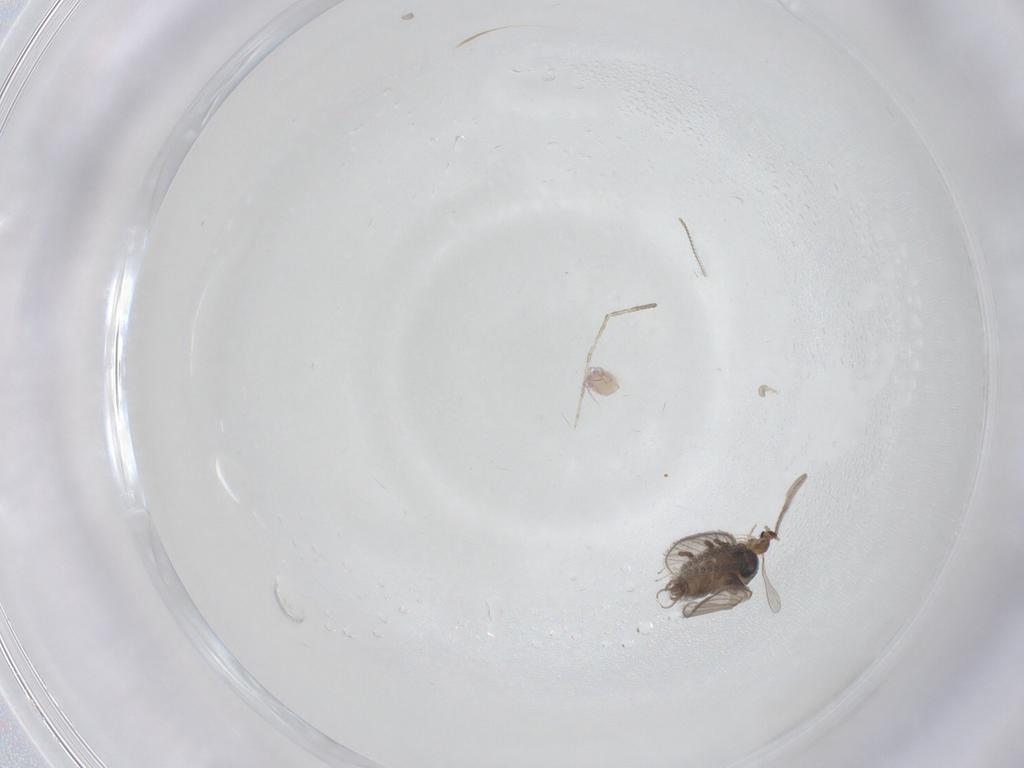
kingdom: Animalia
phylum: Arthropoda
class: Insecta
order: Diptera
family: Psychodidae
